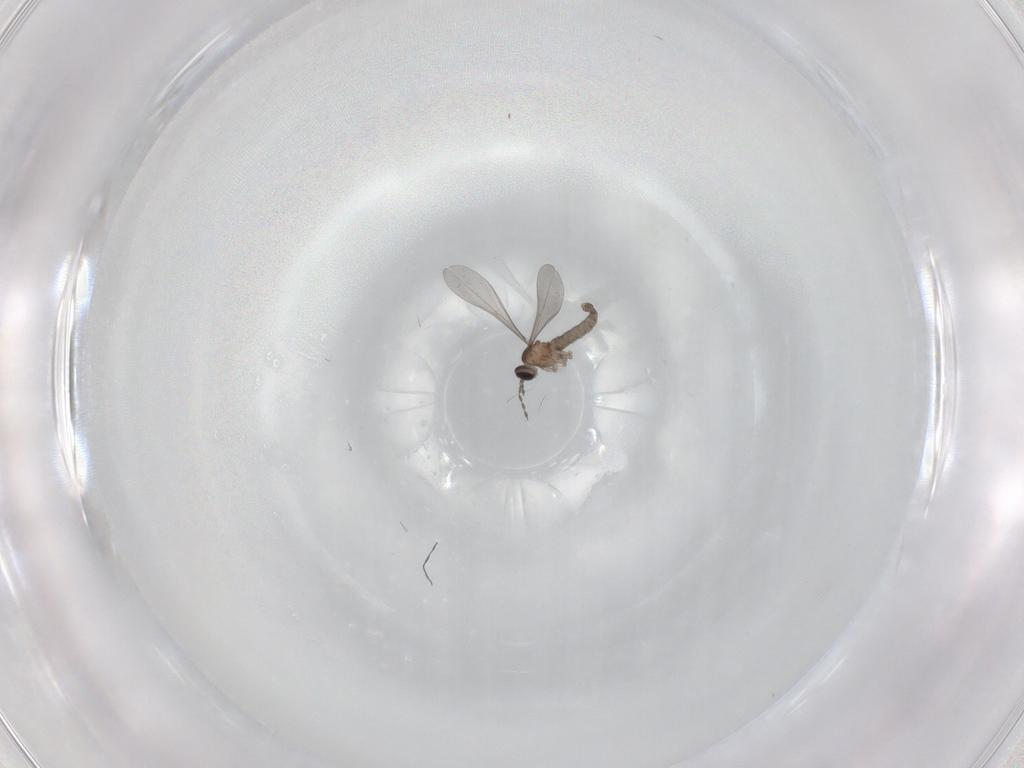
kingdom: Animalia
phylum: Arthropoda
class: Insecta
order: Diptera
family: Cecidomyiidae
